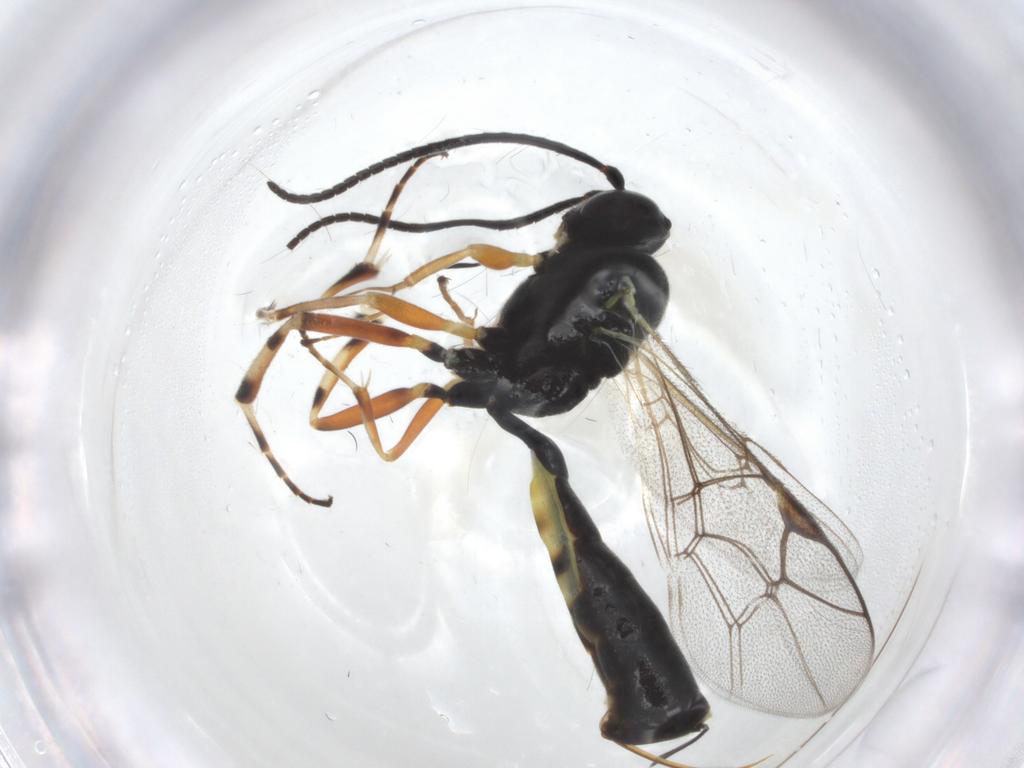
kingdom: Animalia
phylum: Arthropoda
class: Insecta
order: Hymenoptera
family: Ichneumonidae
